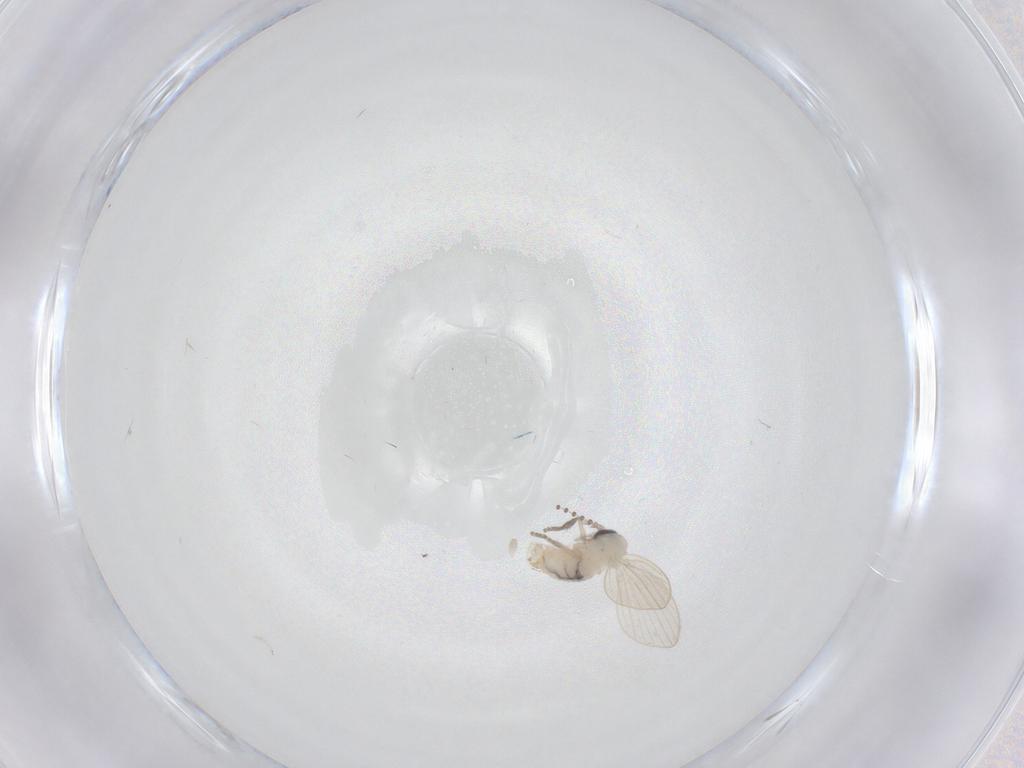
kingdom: Animalia
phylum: Arthropoda
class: Insecta
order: Diptera
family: Psychodidae
